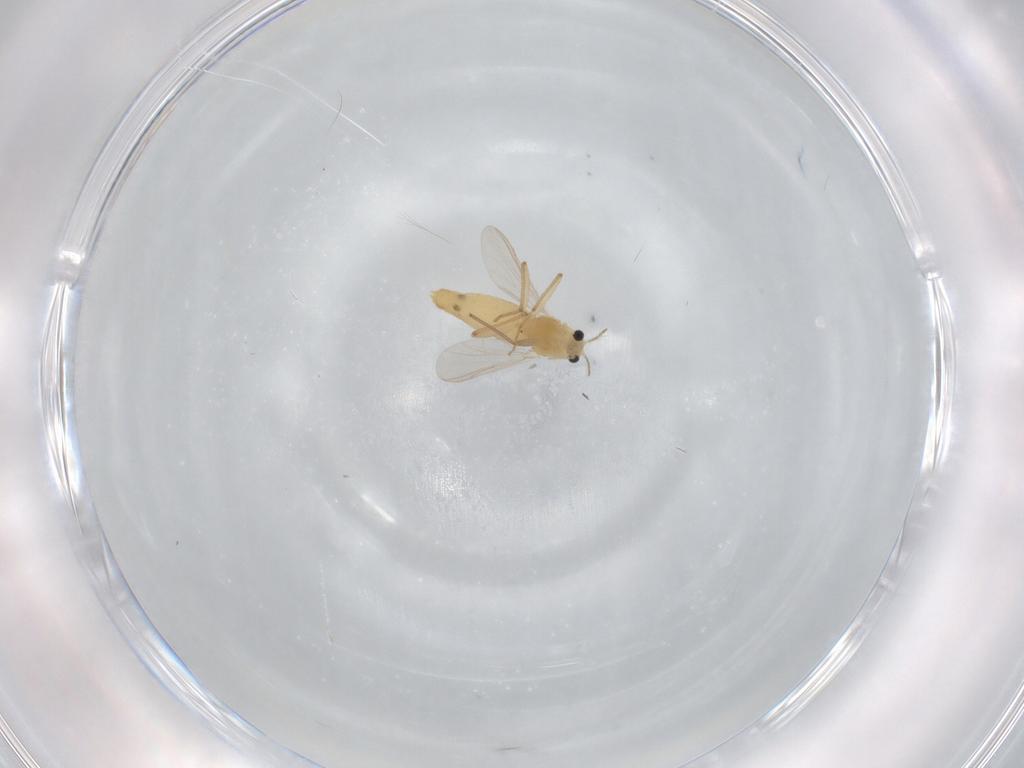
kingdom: Animalia
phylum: Arthropoda
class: Insecta
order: Diptera
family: Chironomidae
